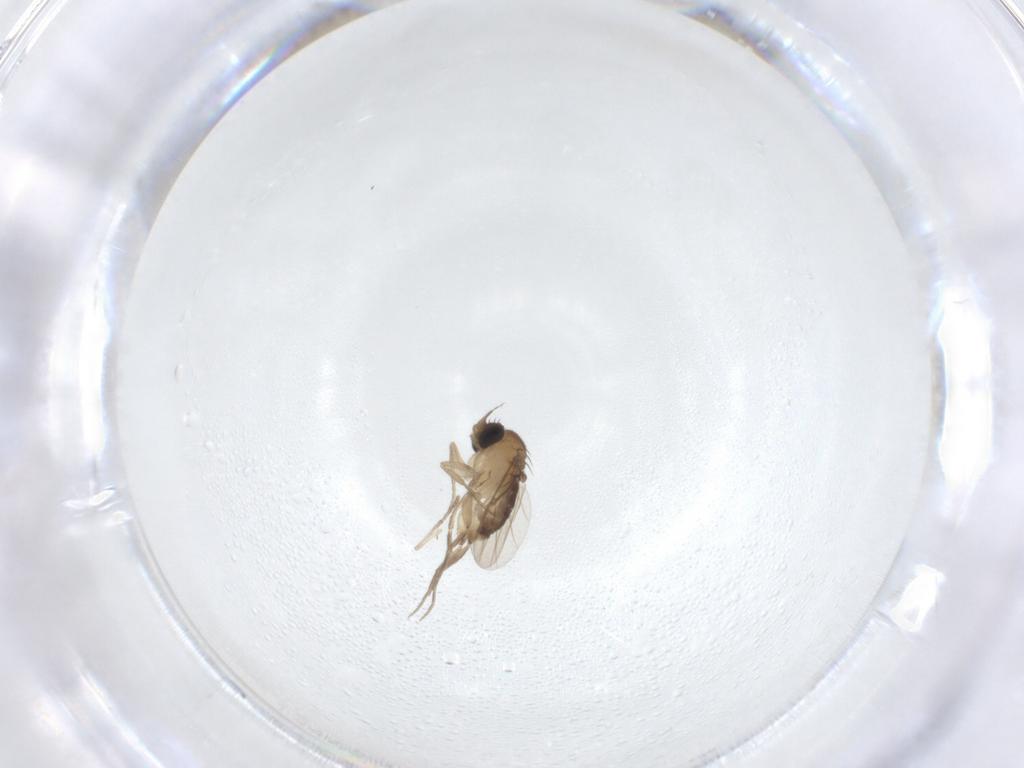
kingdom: Animalia
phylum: Arthropoda
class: Insecta
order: Diptera
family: Phoridae
